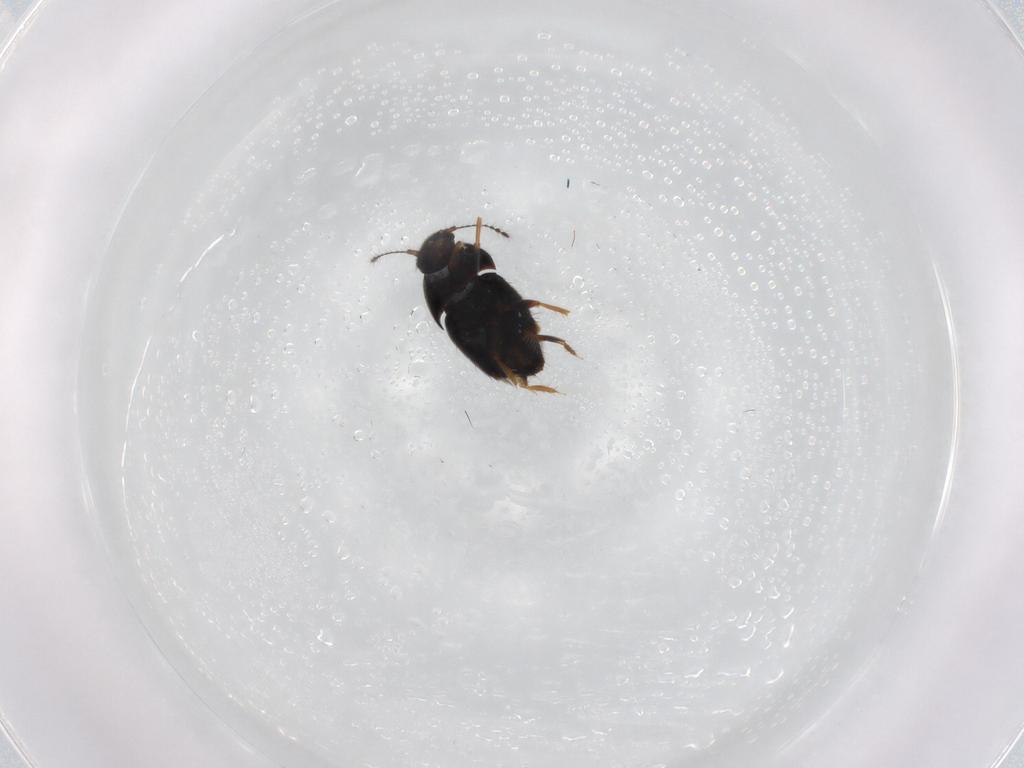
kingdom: Animalia
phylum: Arthropoda
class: Insecta
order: Coleoptera
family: Ptiliidae
